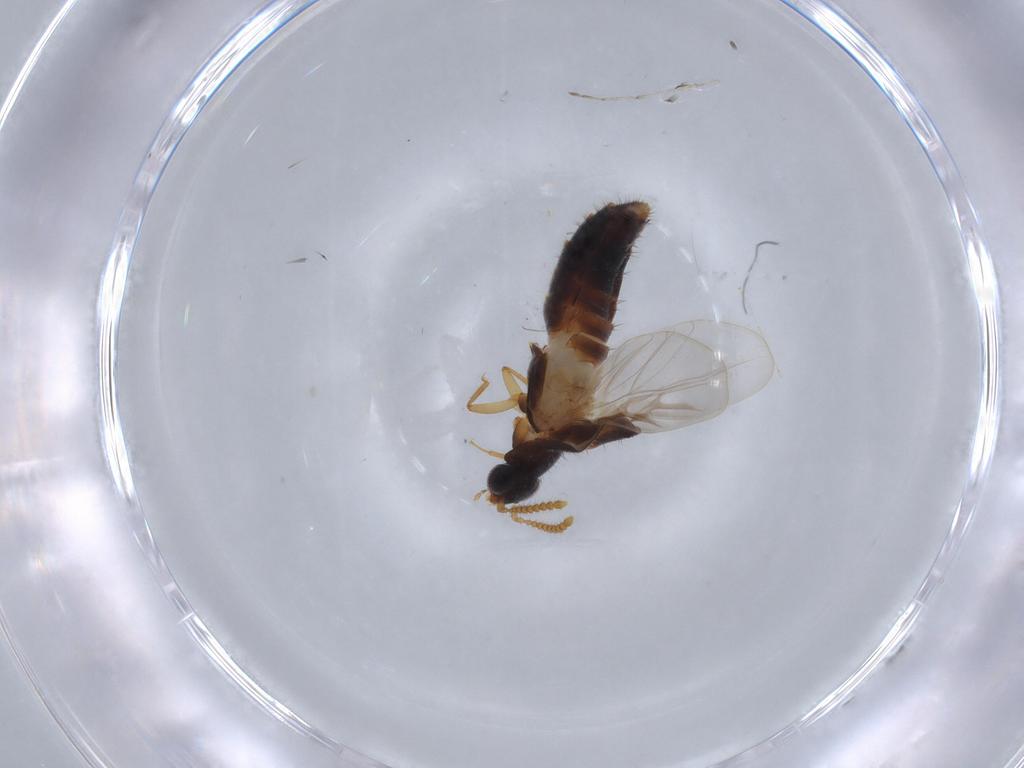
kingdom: Animalia
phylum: Arthropoda
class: Insecta
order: Coleoptera
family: Staphylinidae
